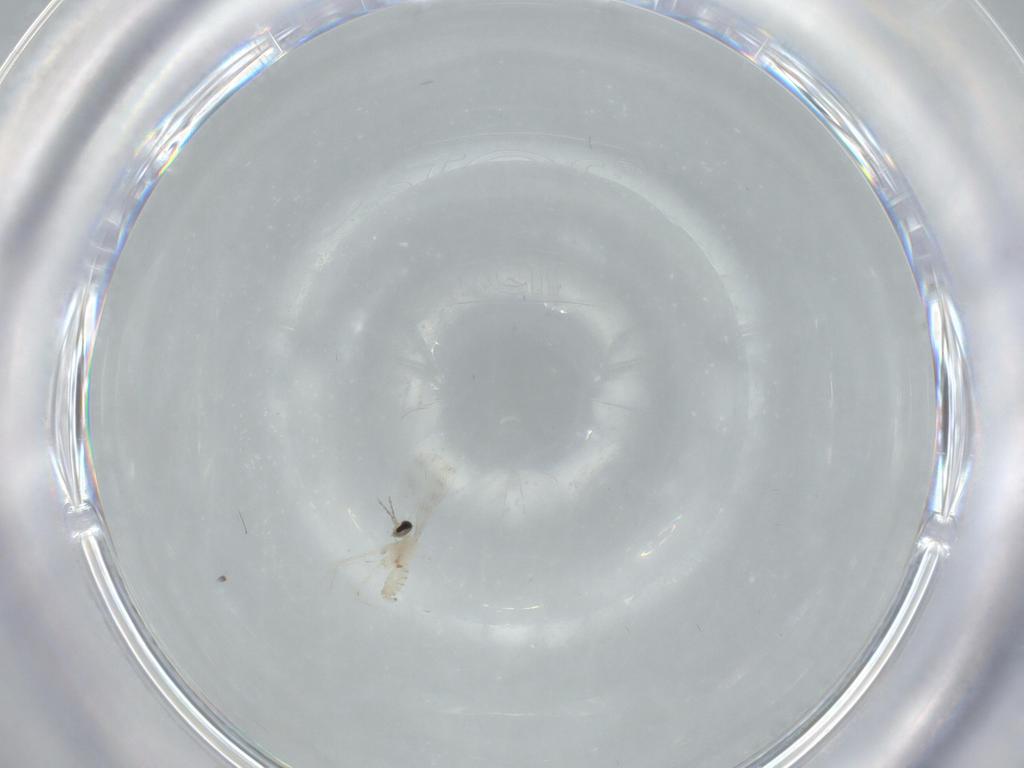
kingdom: Animalia
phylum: Arthropoda
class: Insecta
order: Diptera
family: Cecidomyiidae
